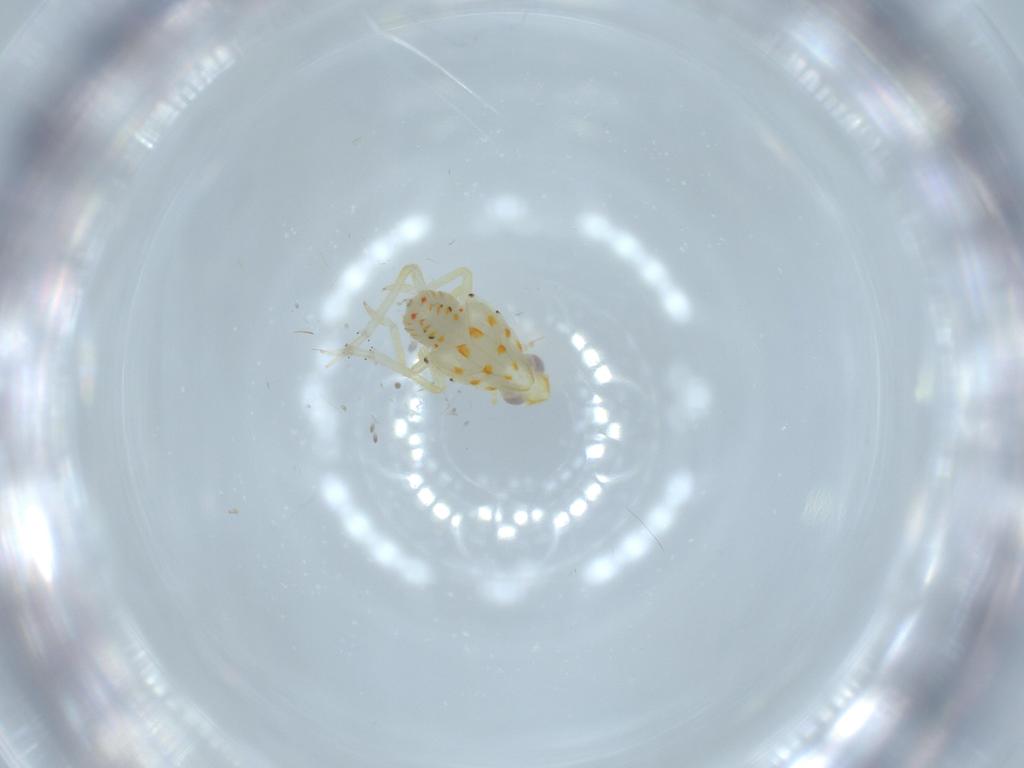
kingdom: Animalia
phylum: Arthropoda
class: Insecta
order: Hemiptera
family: Tropiduchidae
